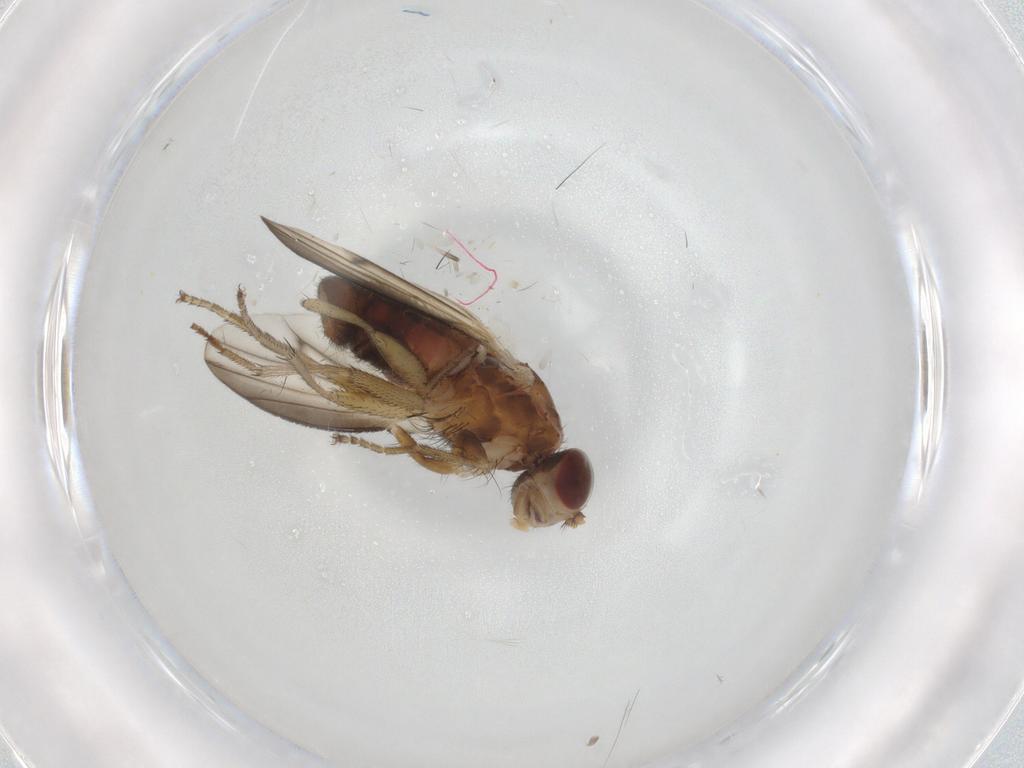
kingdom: Animalia
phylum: Arthropoda
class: Insecta
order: Diptera
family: Heleomyzidae
